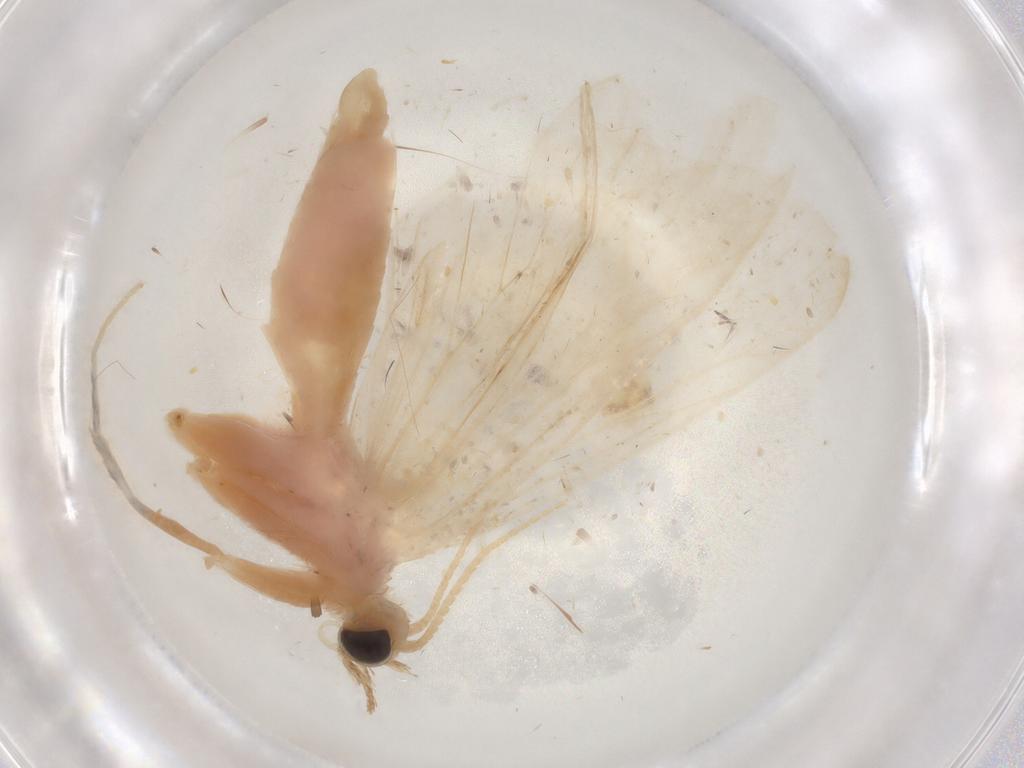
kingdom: Animalia
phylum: Arthropoda
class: Insecta
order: Lepidoptera
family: Crambidae
